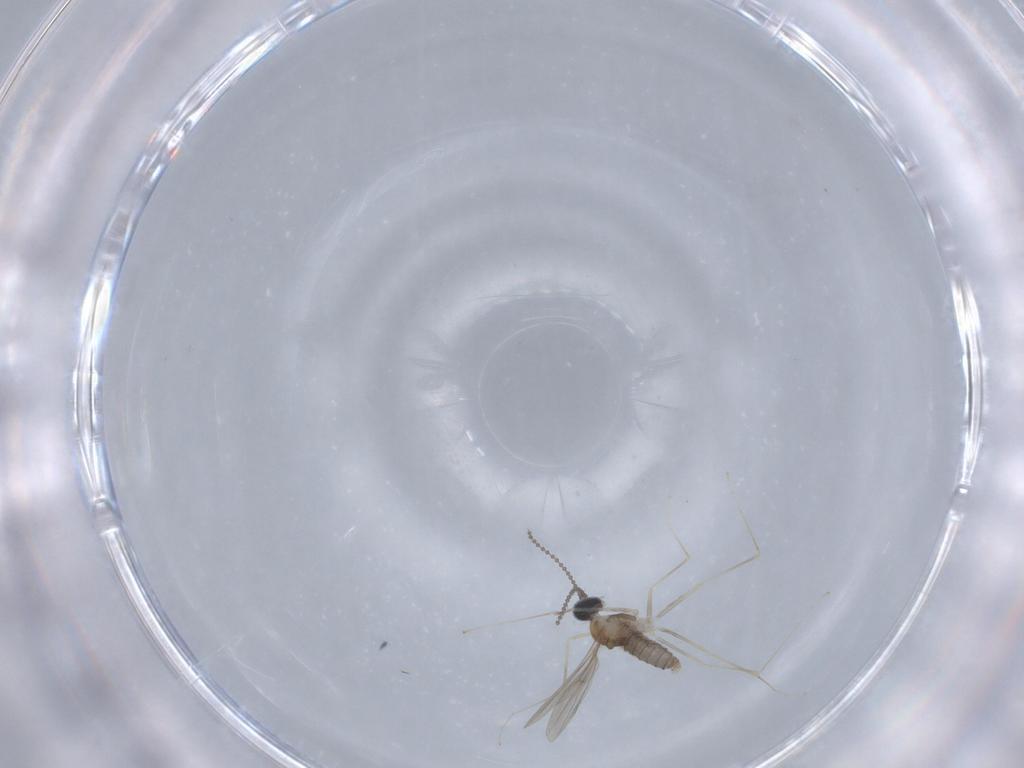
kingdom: Animalia
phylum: Arthropoda
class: Insecta
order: Diptera
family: Cecidomyiidae
